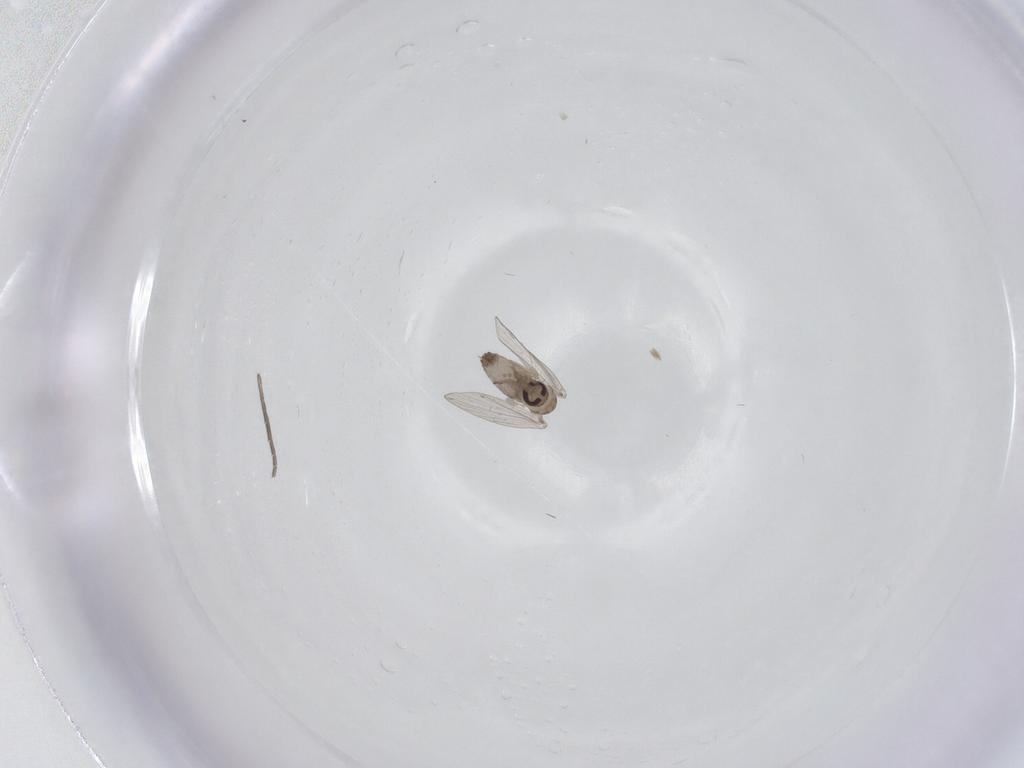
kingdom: Animalia
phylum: Arthropoda
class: Insecta
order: Diptera
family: Psychodidae
